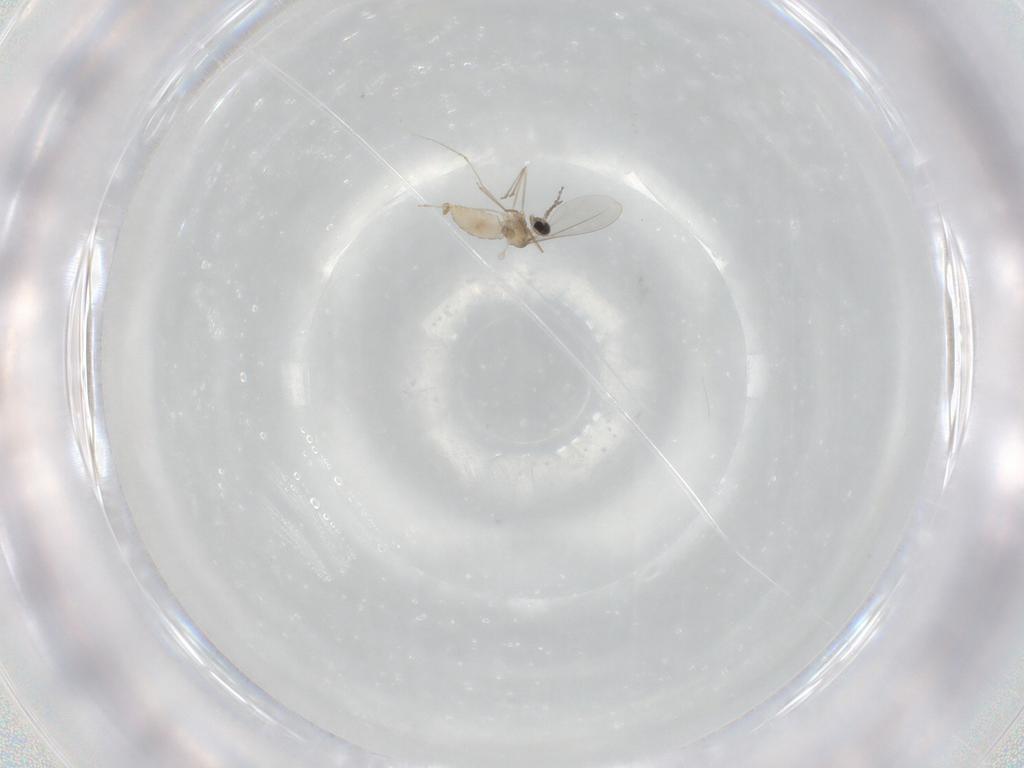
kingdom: Animalia
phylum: Arthropoda
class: Insecta
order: Diptera
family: Cecidomyiidae
